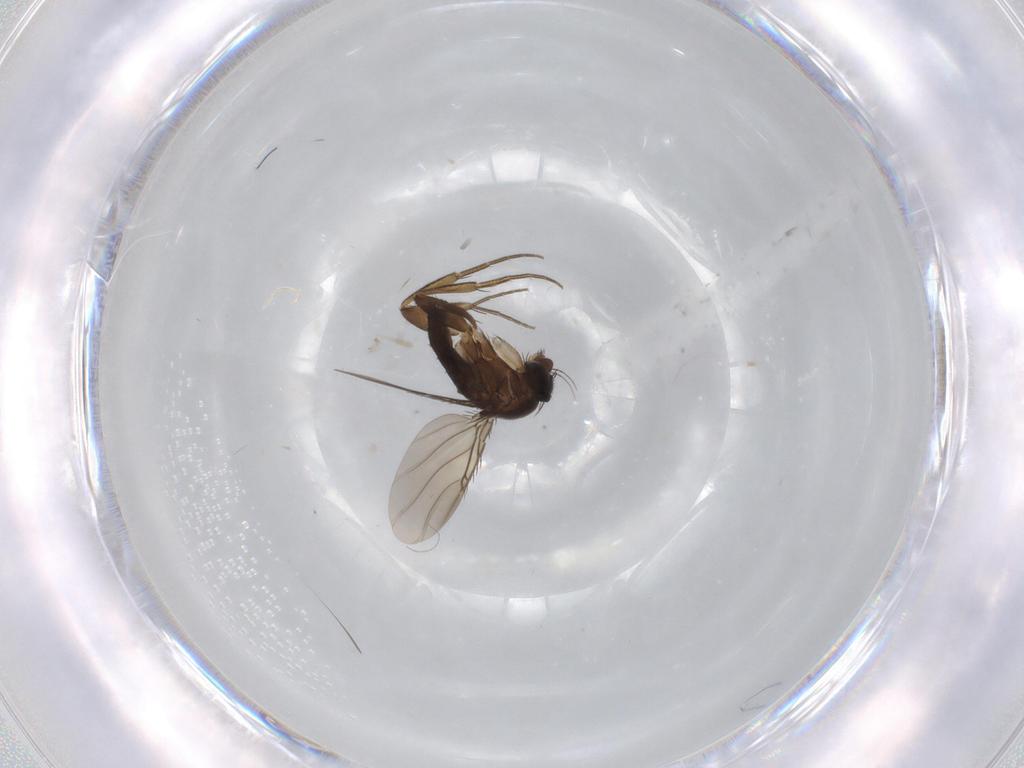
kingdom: Animalia
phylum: Arthropoda
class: Insecta
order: Diptera
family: Phoridae
